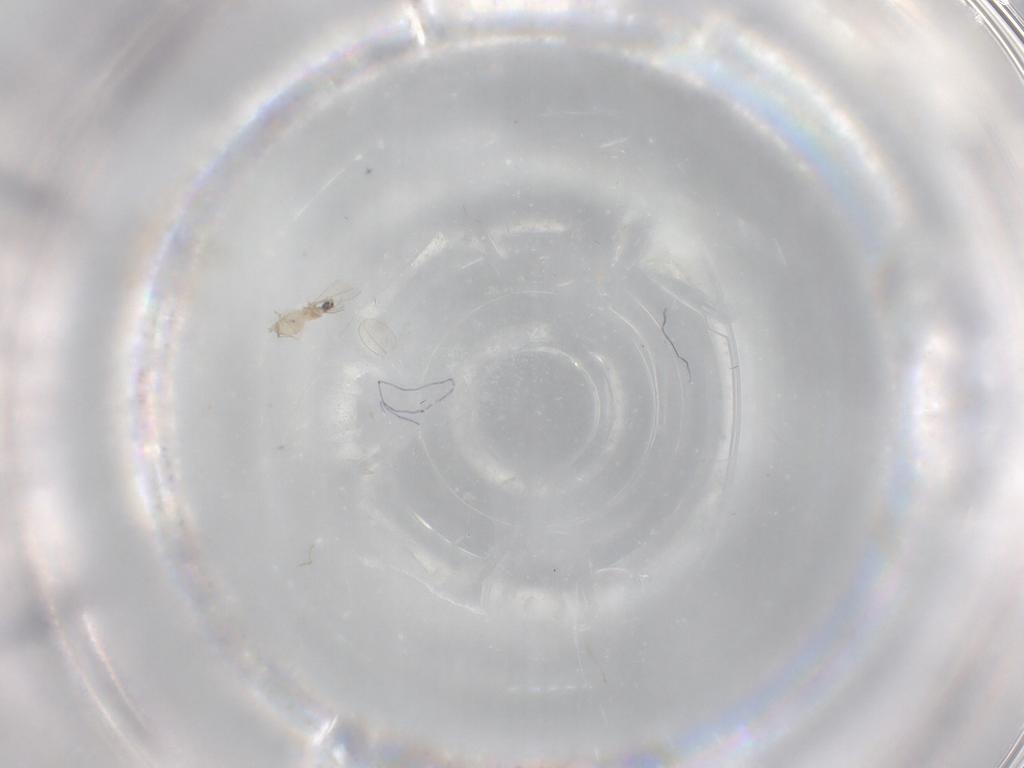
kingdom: Animalia
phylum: Arthropoda
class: Insecta
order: Diptera
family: Cecidomyiidae
